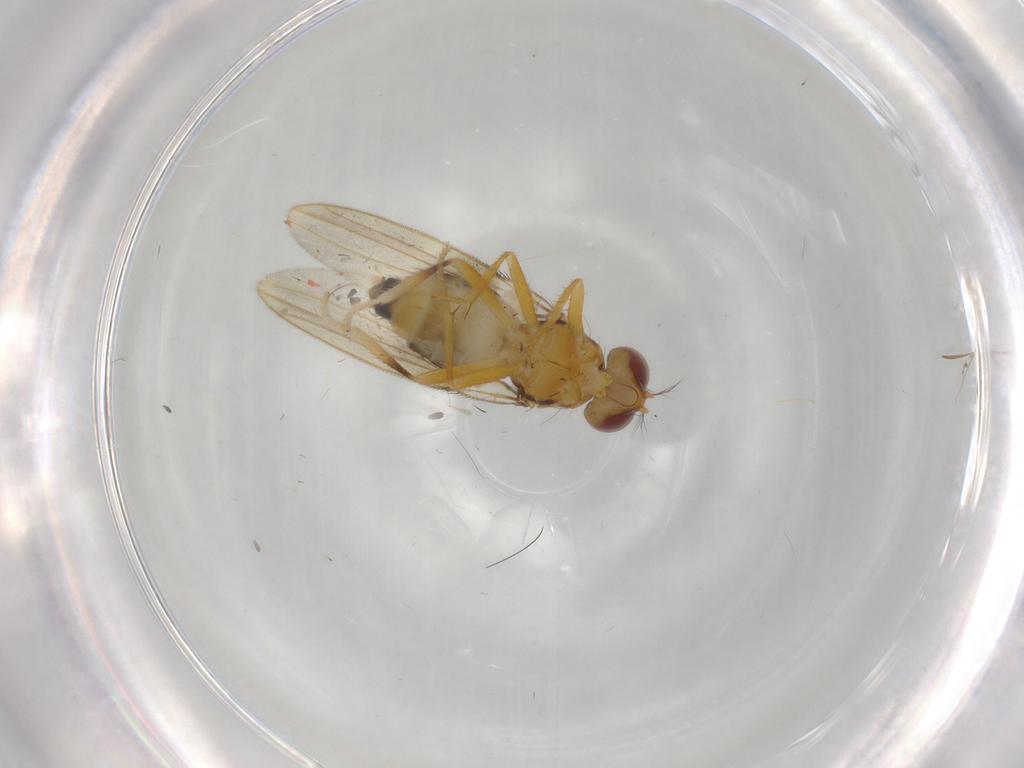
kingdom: Animalia
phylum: Arthropoda
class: Insecta
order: Diptera
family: Periscelididae
